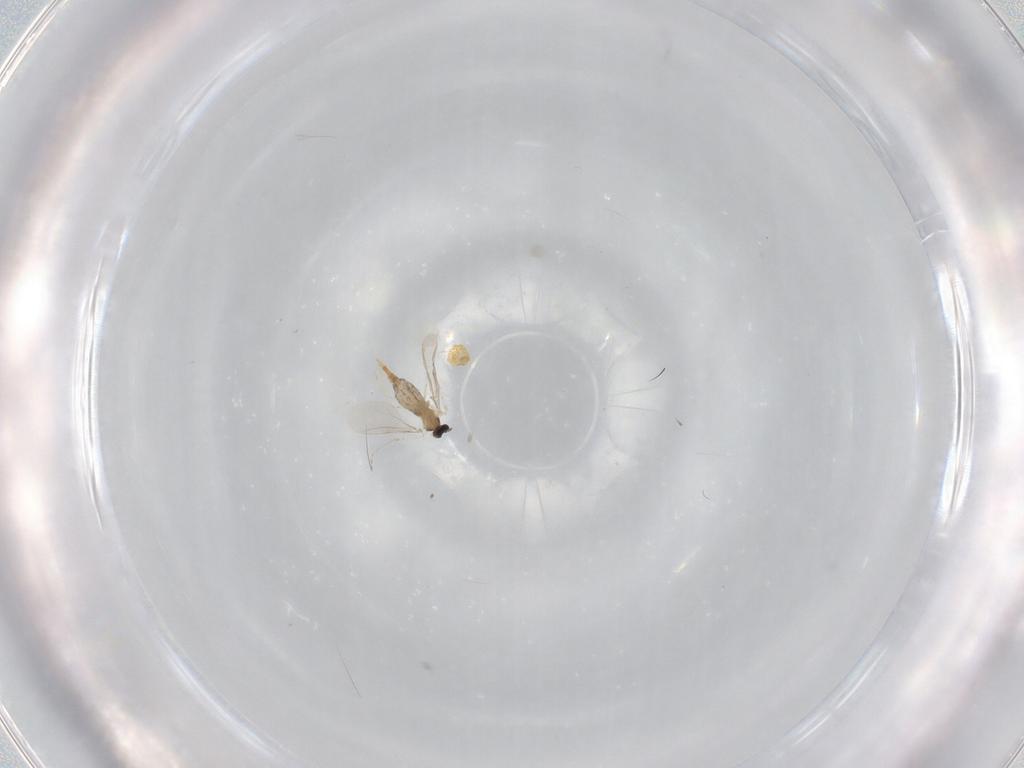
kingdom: Animalia
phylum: Arthropoda
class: Insecta
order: Diptera
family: Cecidomyiidae
